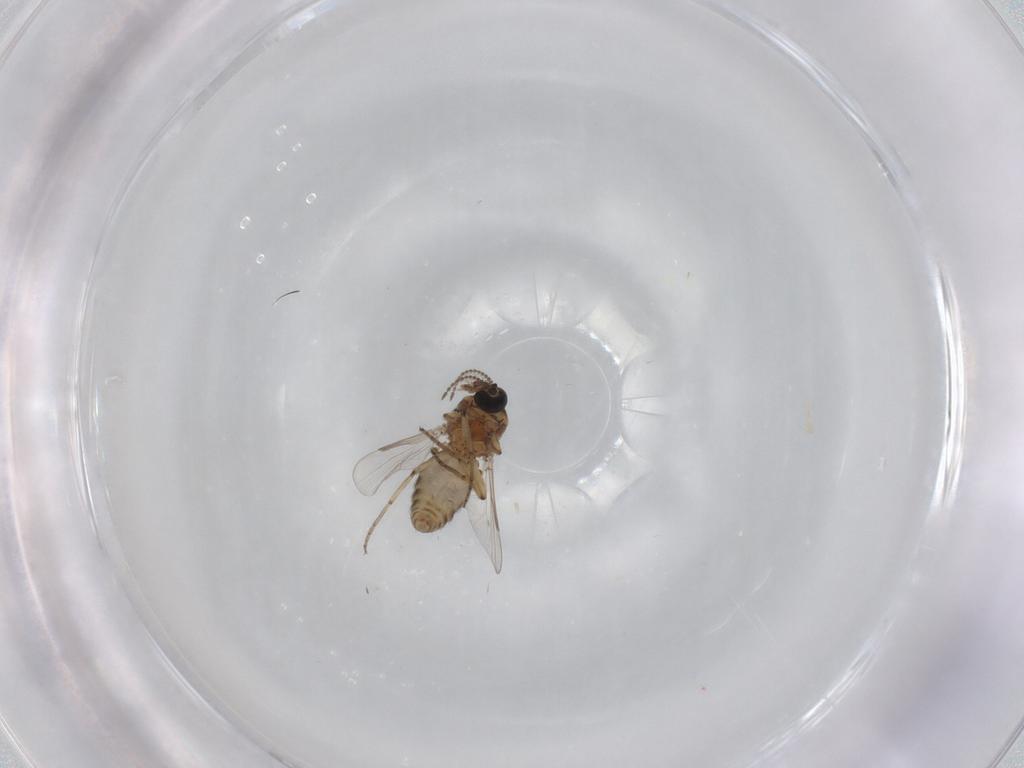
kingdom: Animalia
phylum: Arthropoda
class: Insecta
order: Diptera
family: Ceratopogonidae
